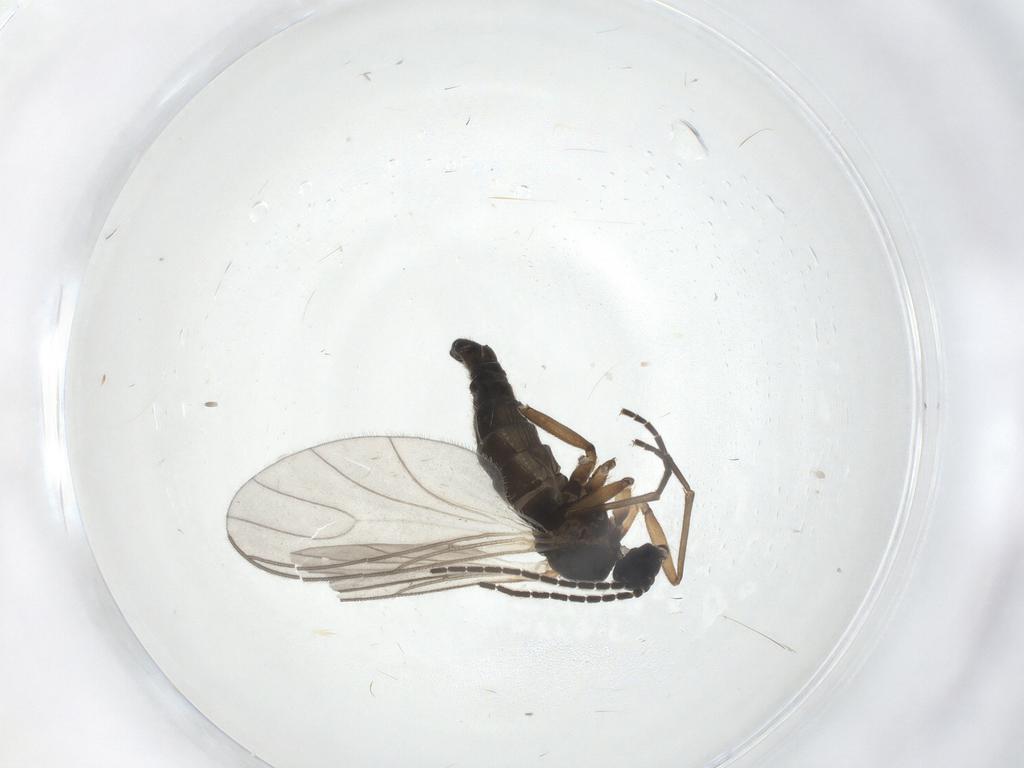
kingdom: Animalia
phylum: Arthropoda
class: Insecta
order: Diptera
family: Sciaridae
